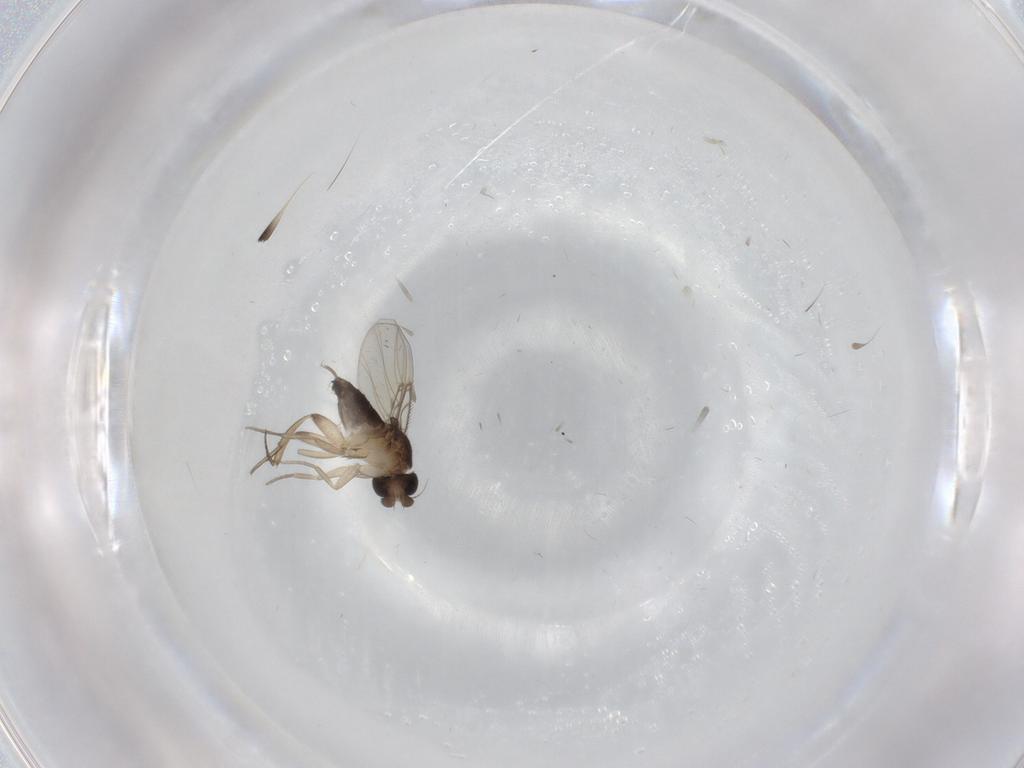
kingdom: Animalia
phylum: Arthropoda
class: Insecta
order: Diptera
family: Phoridae
